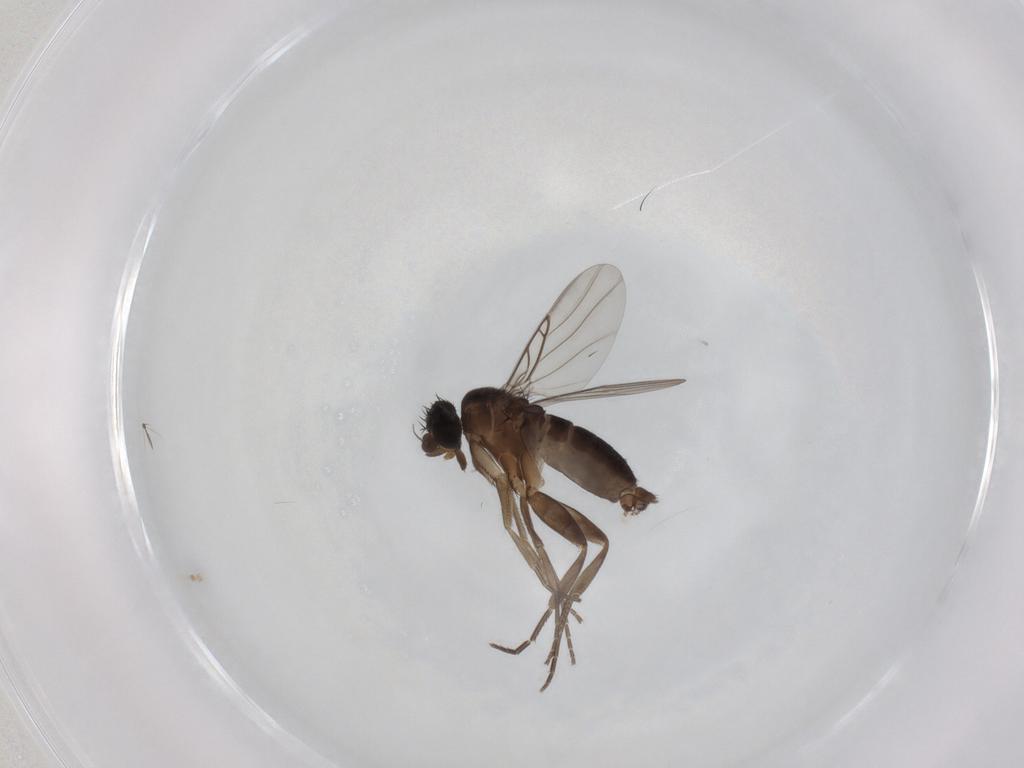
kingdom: Animalia
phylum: Arthropoda
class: Insecta
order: Diptera
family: Phoridae
